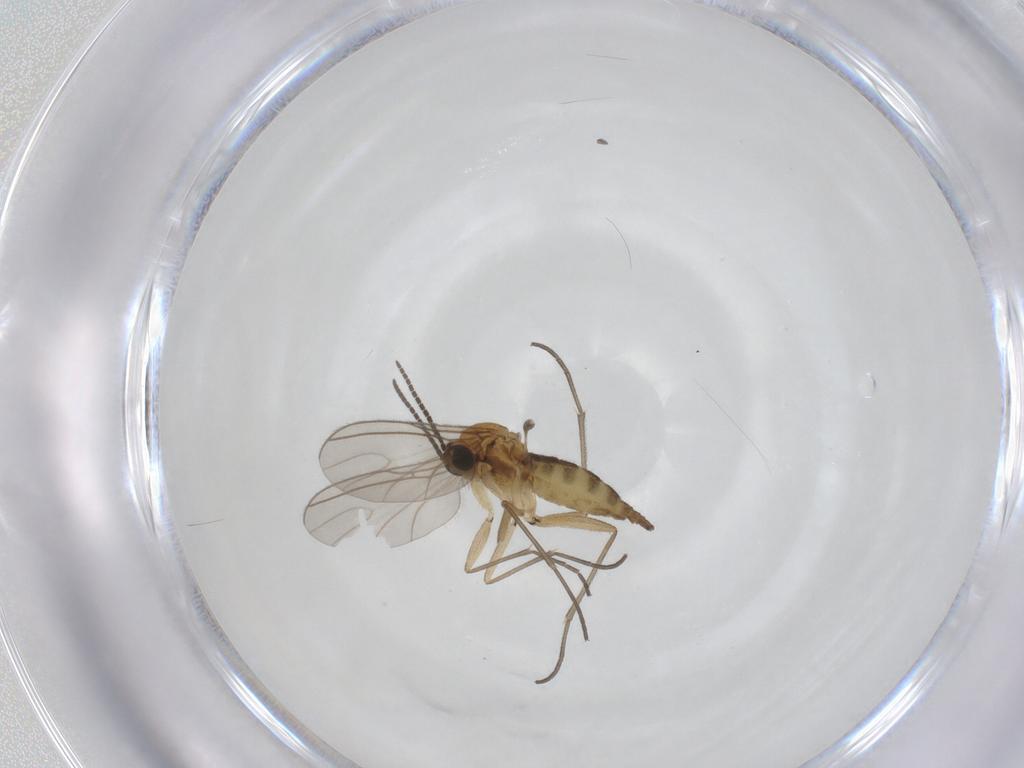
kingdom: Animalia
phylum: Arthropoda
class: Insecta
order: Diptera
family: Sciaridae
